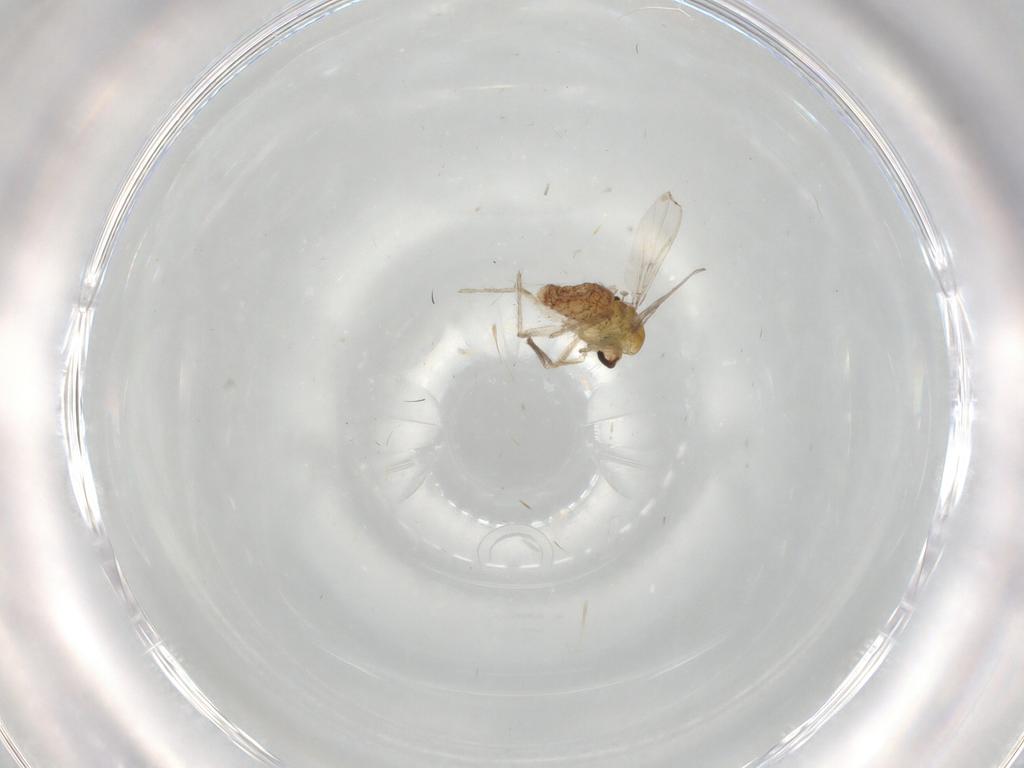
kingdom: Animalia
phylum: Arthropoda
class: Insecta
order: Diptera
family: Chironomidae
